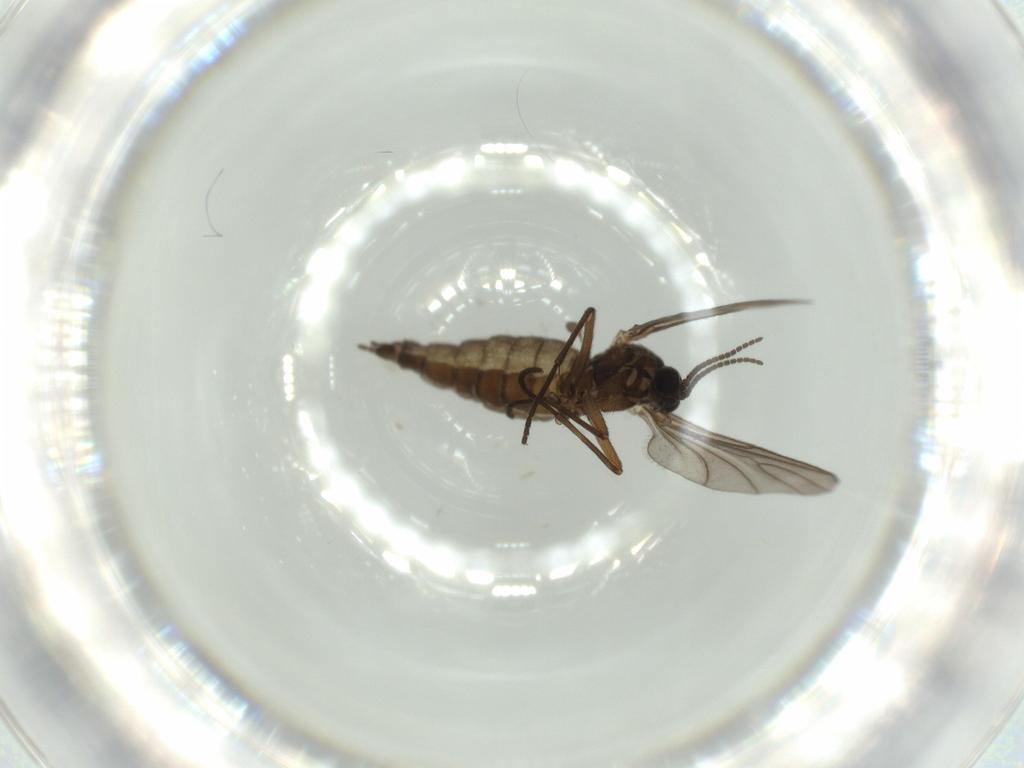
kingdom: Animalia
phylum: Arthropoda
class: Insecta
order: Diptera
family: Sciaridae
